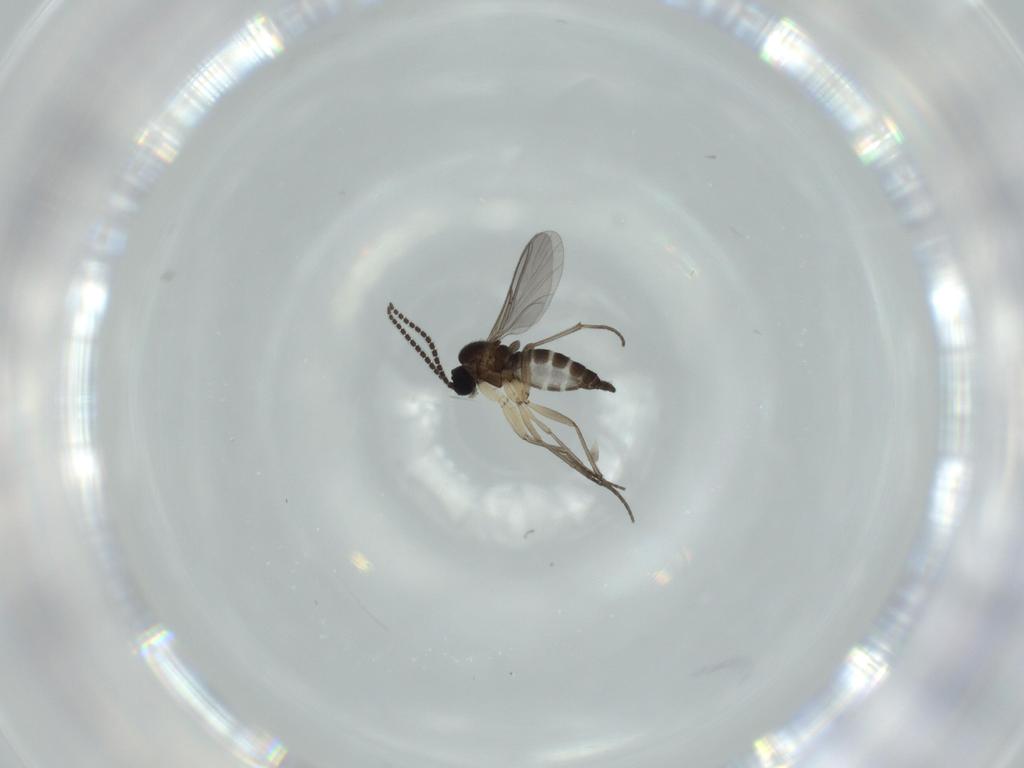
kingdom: Animalia
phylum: Arthropoda
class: Insecta
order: Diptera
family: Sciaridae
